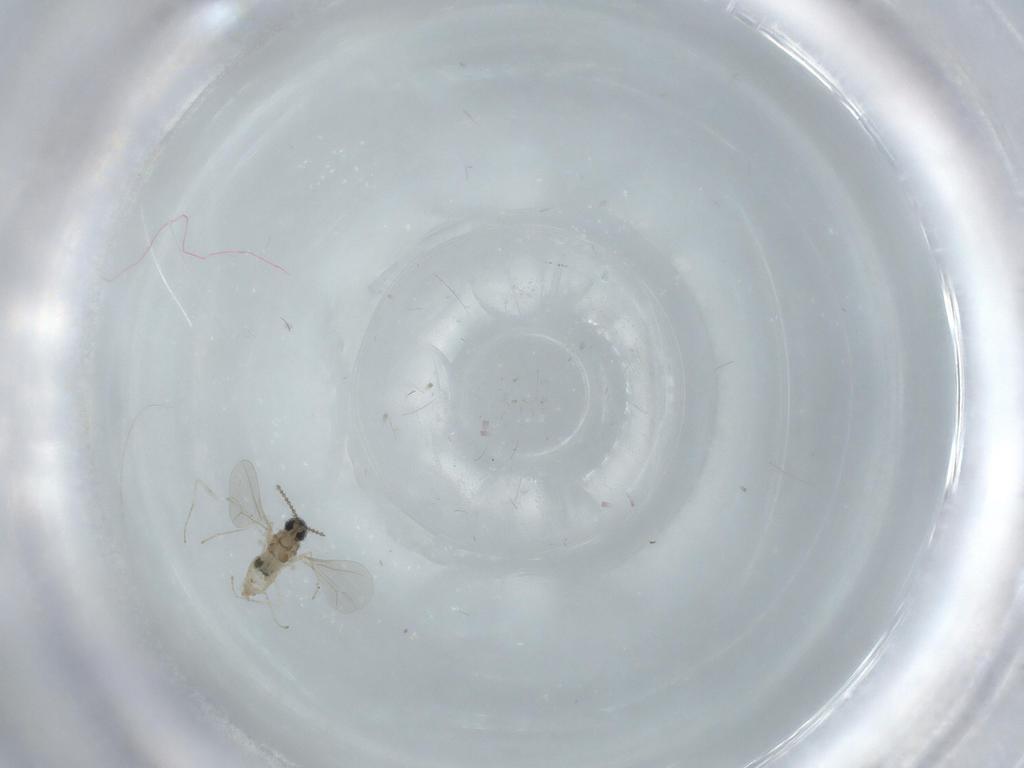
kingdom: Animalia
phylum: Arthropoda
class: Insecta
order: Diptera
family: Cecidomyiidae
